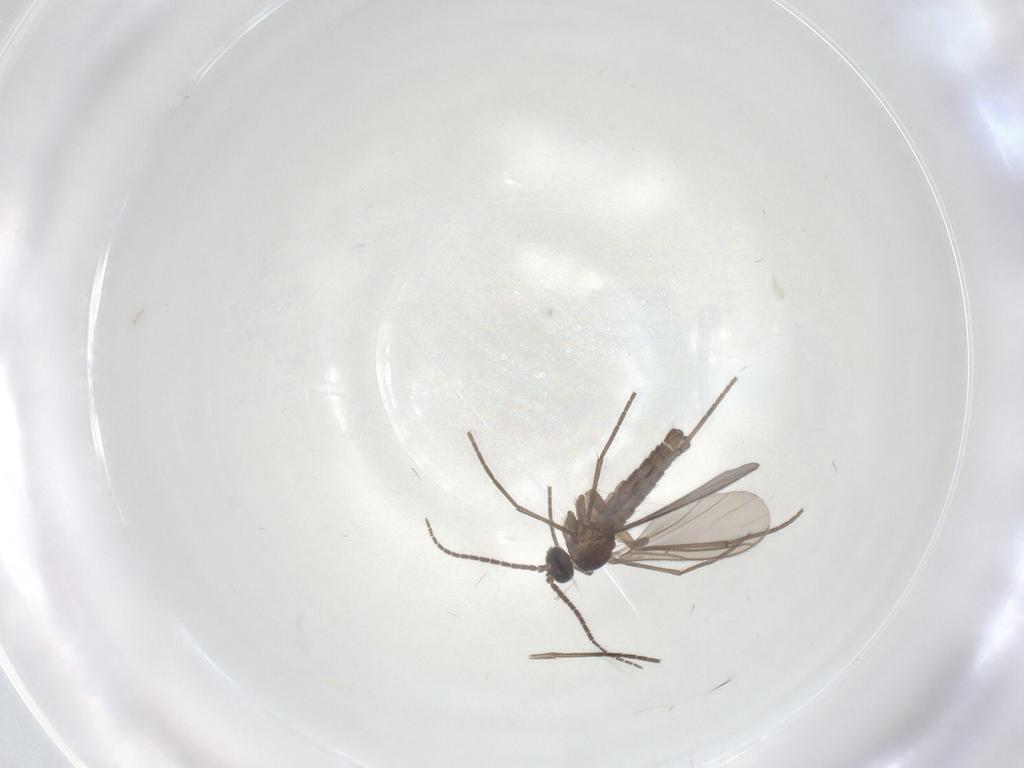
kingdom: Animalia
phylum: Arthropoda
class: Insecta
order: Diptera
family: Sciaridae
